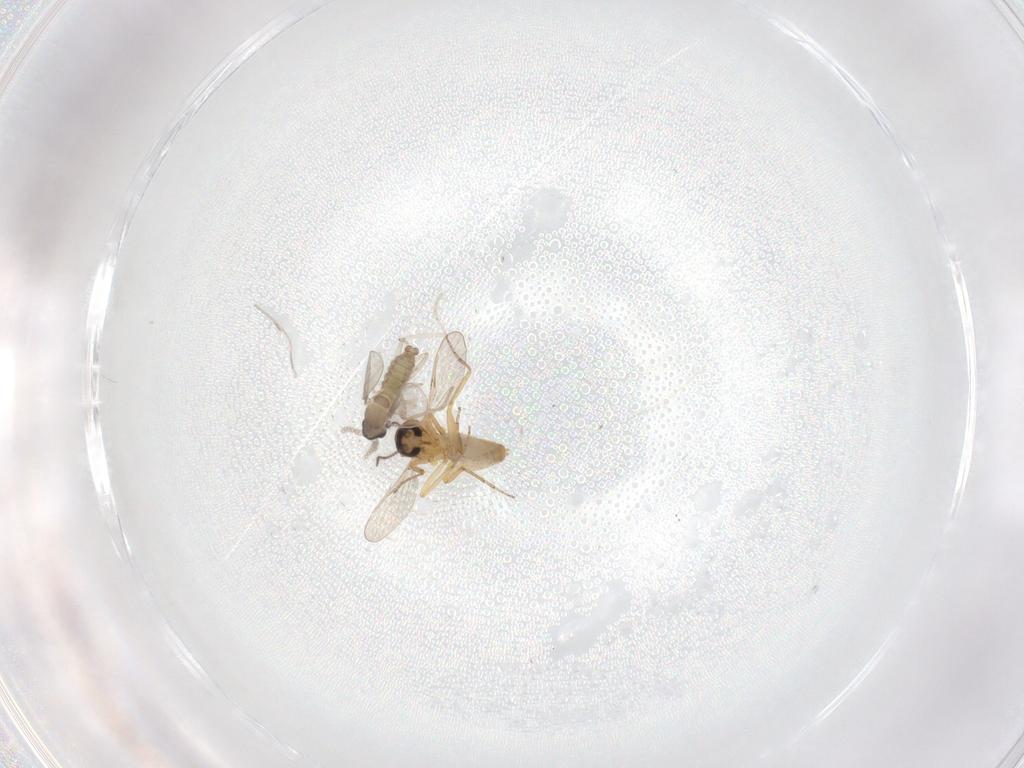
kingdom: Animalia
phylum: Arthropoda
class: Insecta
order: Diptera
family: Cecidomyiidae
